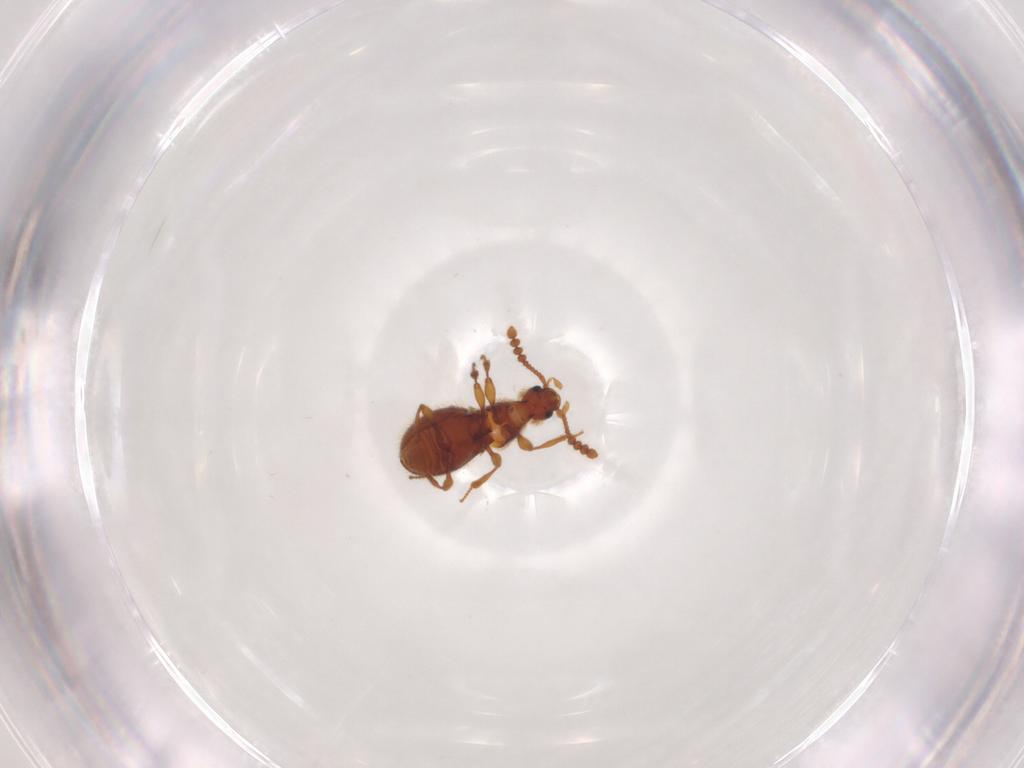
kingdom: Animalia
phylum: Arthropoda
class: Insecta
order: Coleoptera
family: Staphylinidae
